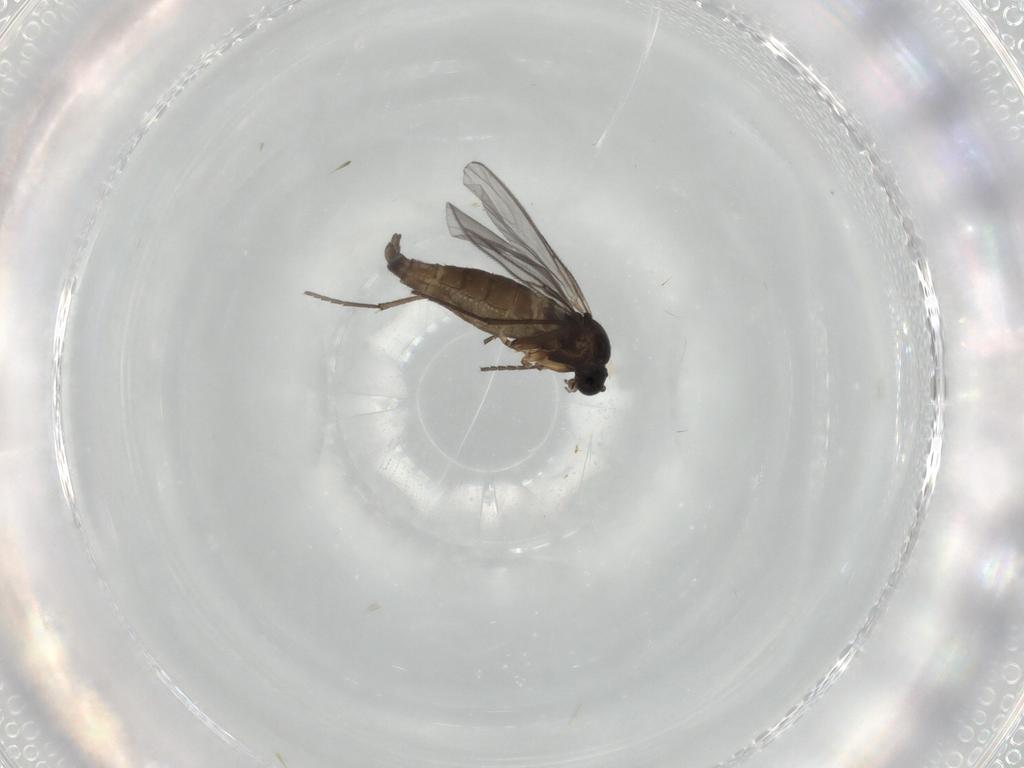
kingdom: Animalia
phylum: Arthropoda
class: Insecta
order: Diptera
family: Sciaridae
